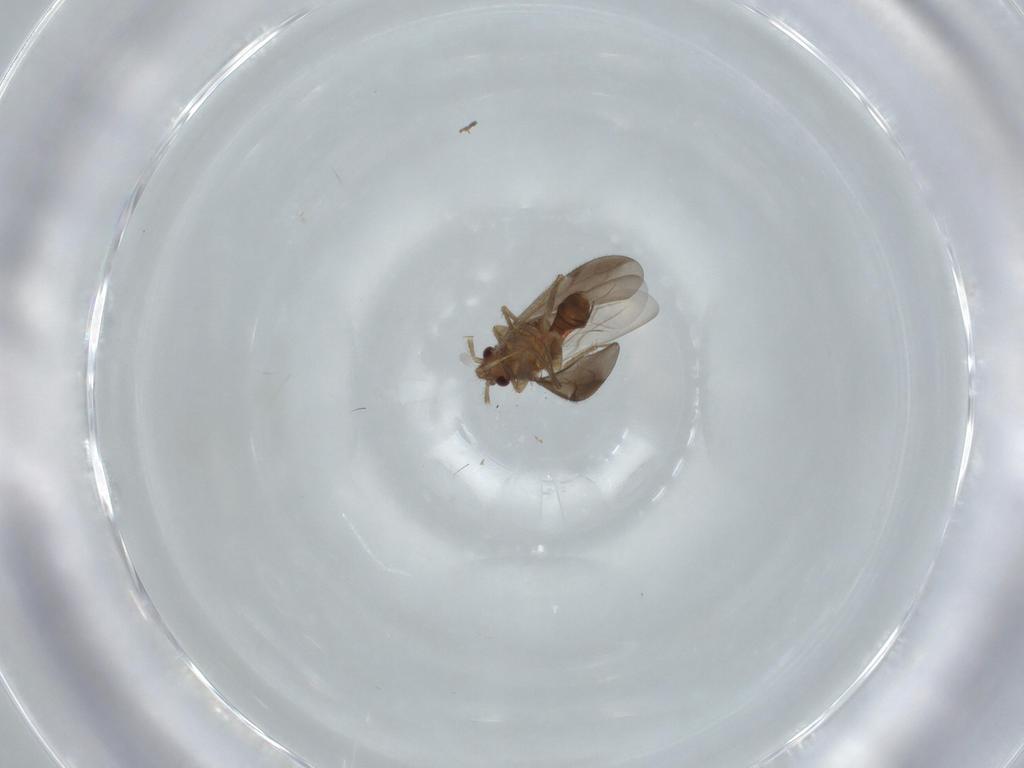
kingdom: Animalia
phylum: Arthropoda
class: Insecta
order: Hemiptera
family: Ceratocombidae
